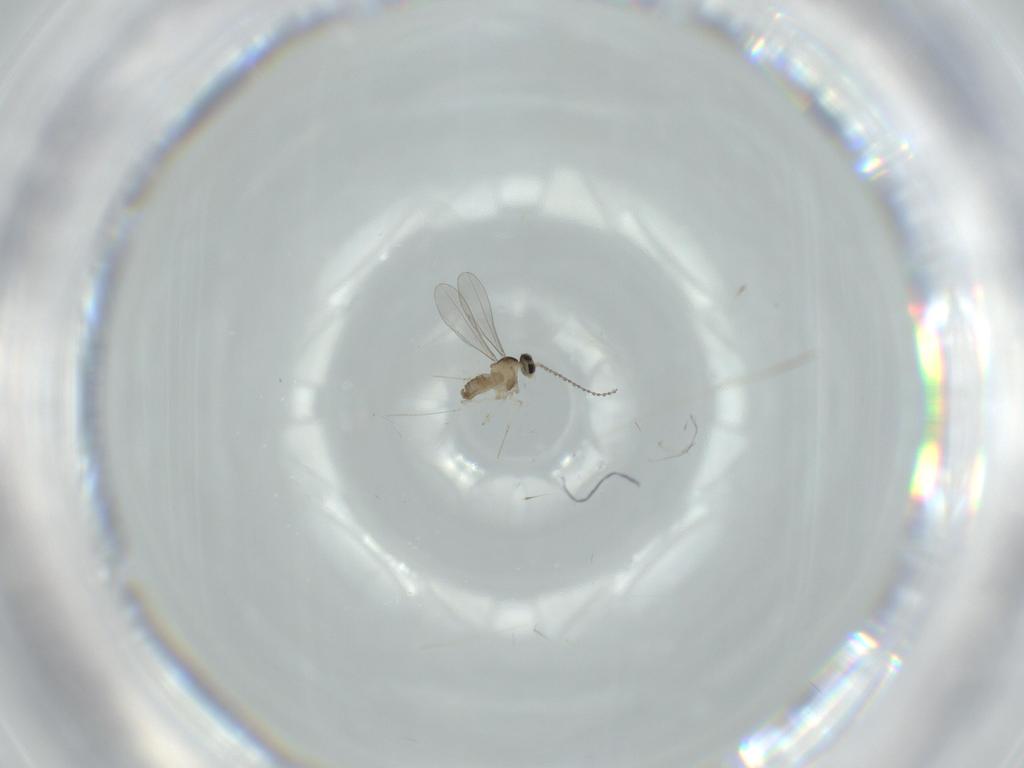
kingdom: Animalia
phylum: Arthropoda
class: Insecta
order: Diptera
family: Cecidomyiidae
